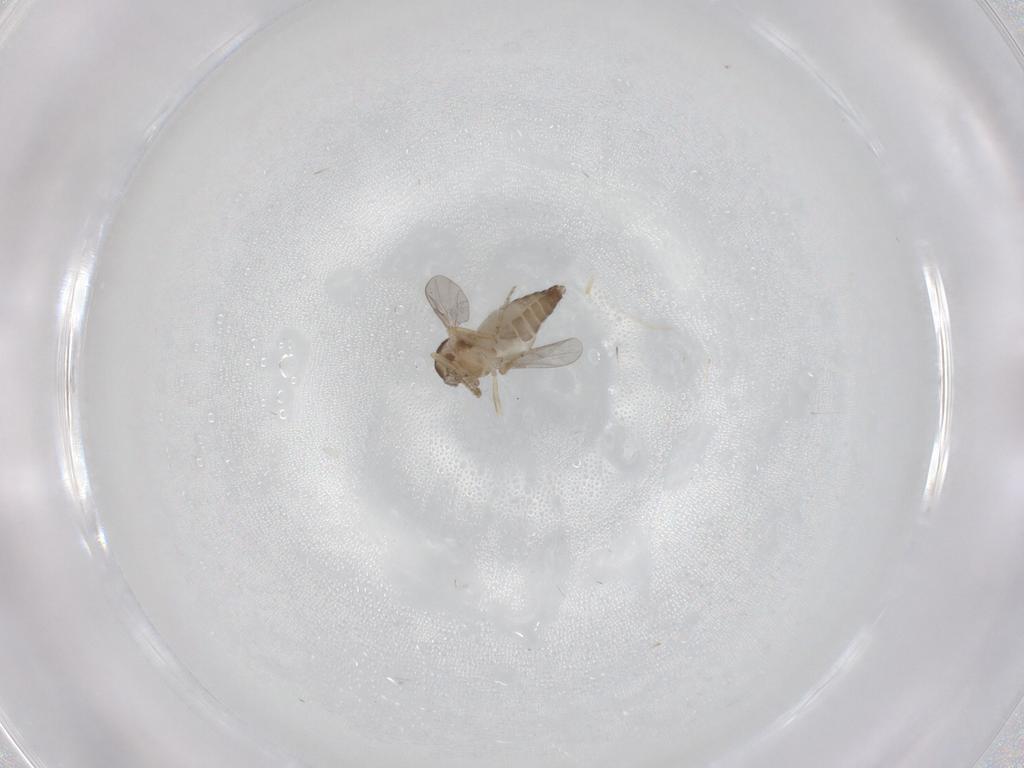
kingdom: Animalia
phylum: Arthropoda
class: Insecta
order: Diptera
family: Ceratopogonidae
